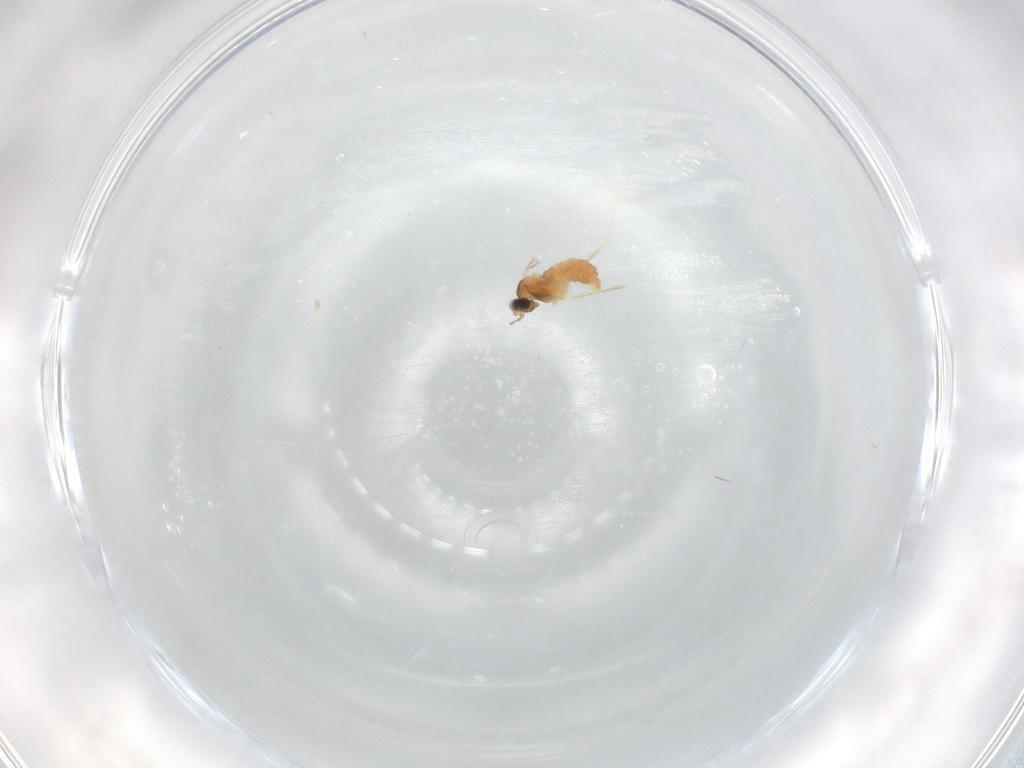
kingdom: Animalia
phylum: Arthropoda
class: Insecta
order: Diptera
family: Cecidomyiidae
